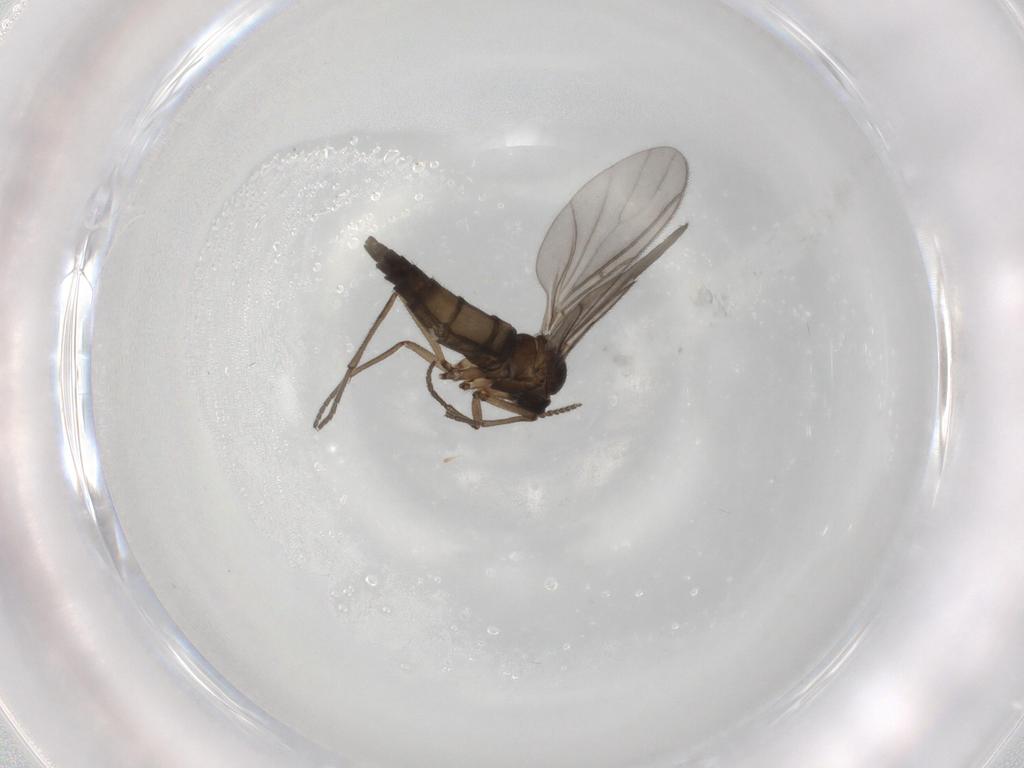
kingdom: Animalia
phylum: Arthropoda
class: Insecta
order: Diptera
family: Sciaridae
